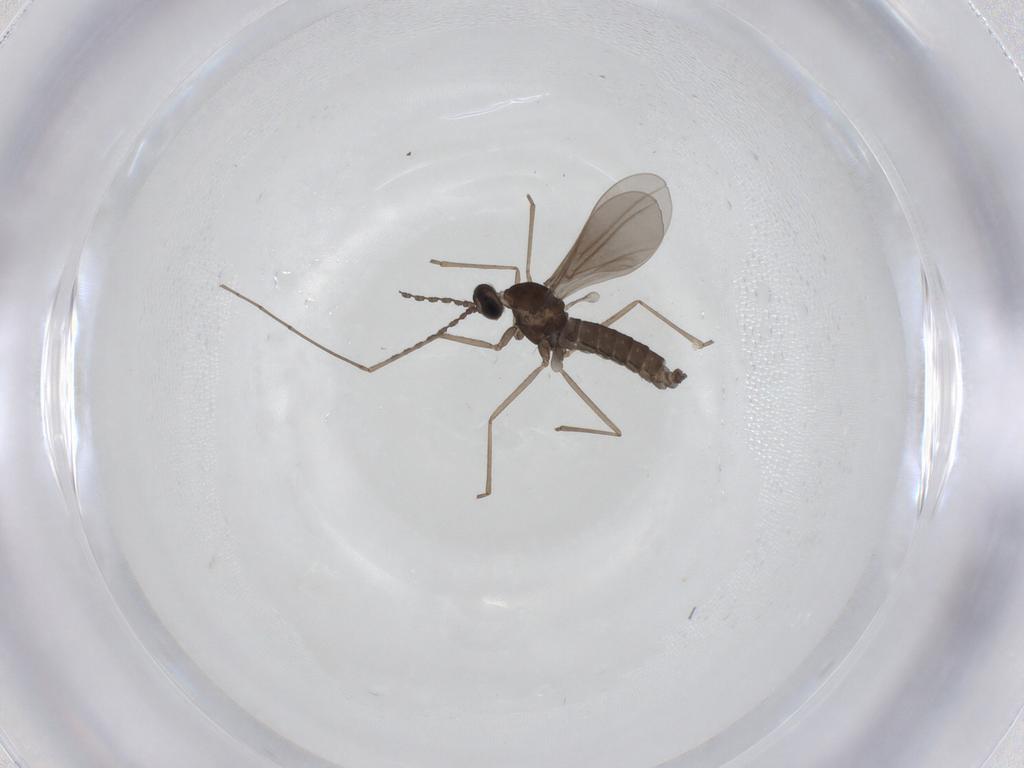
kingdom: Animalia
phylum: Arthropoda
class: Insecta
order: Diptera
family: Cecidomyiidae
